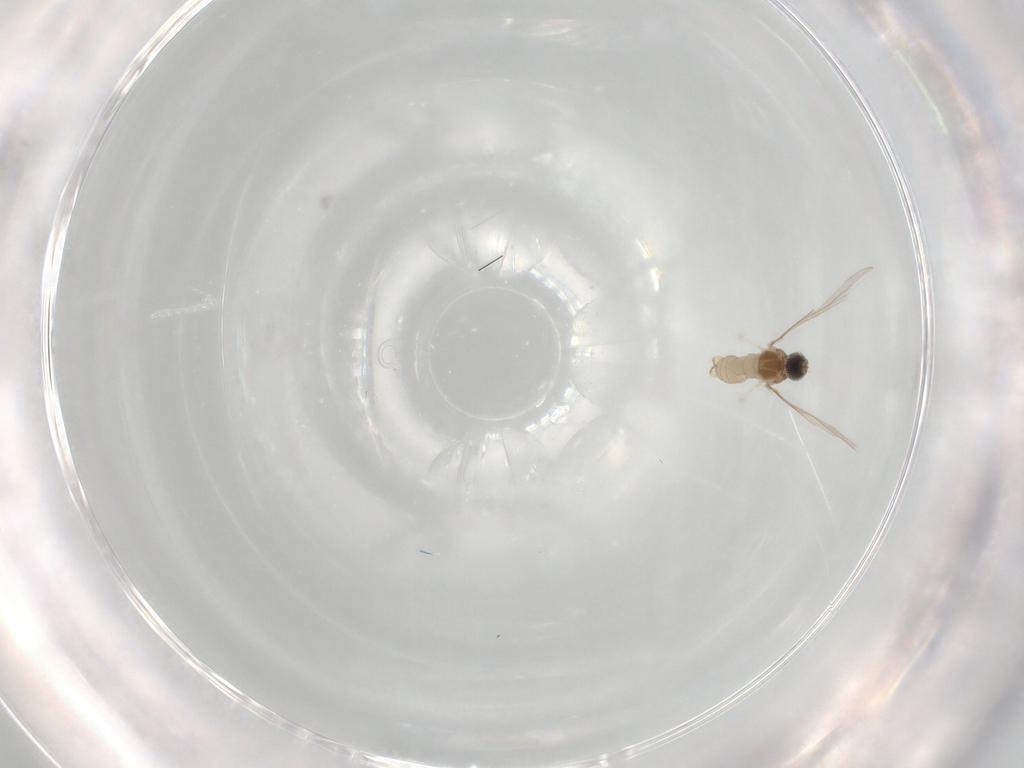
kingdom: Animalia
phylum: Arthropoda
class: Insecta
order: Diptera
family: Cecidomyiidae
